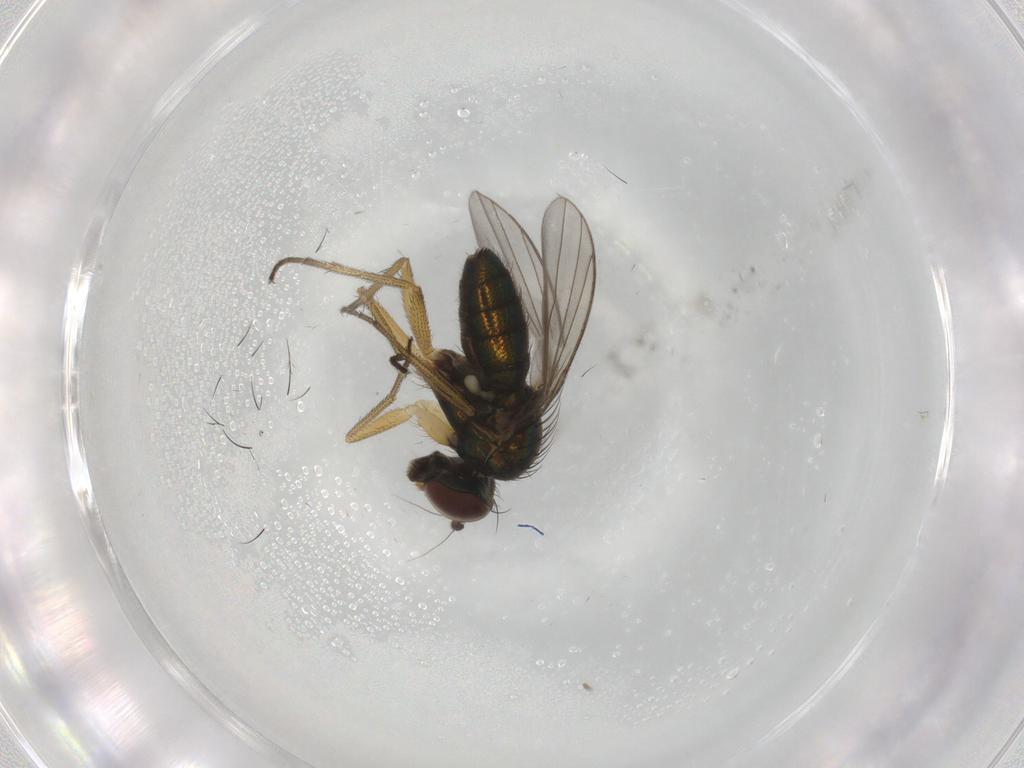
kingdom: Animalia
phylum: Arthropoda
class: Insecta
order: Diptera
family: Dolichopodidae
